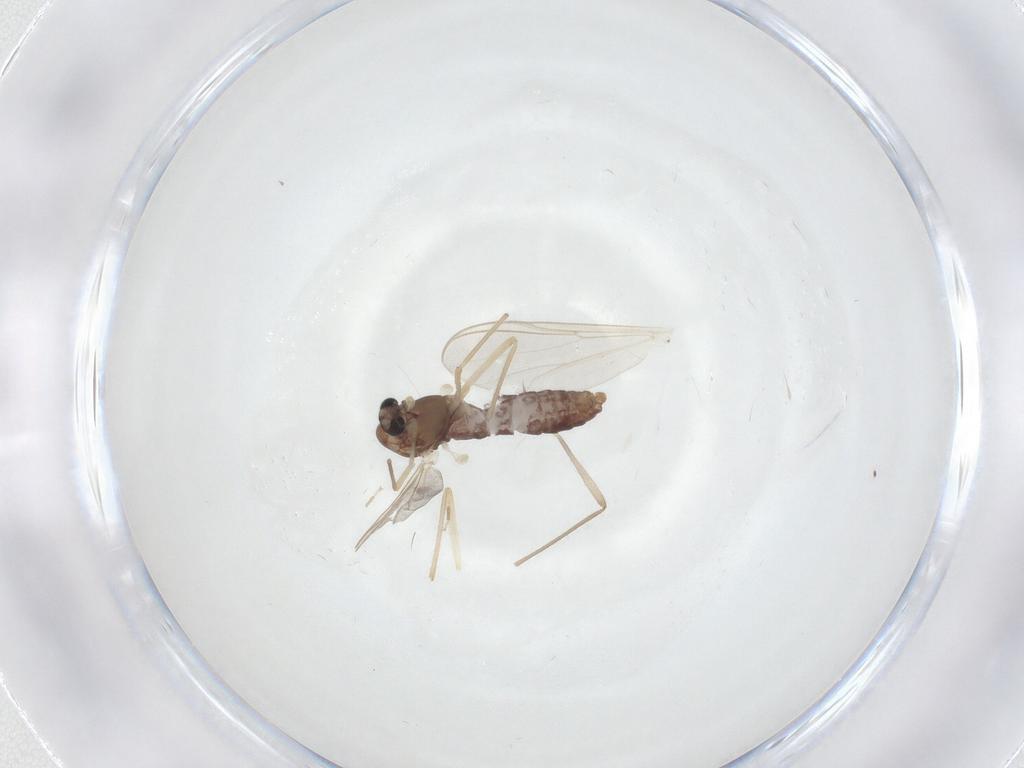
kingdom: Animalia
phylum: Arthropoda
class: Insecta
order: Diptera
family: Chironomidae
